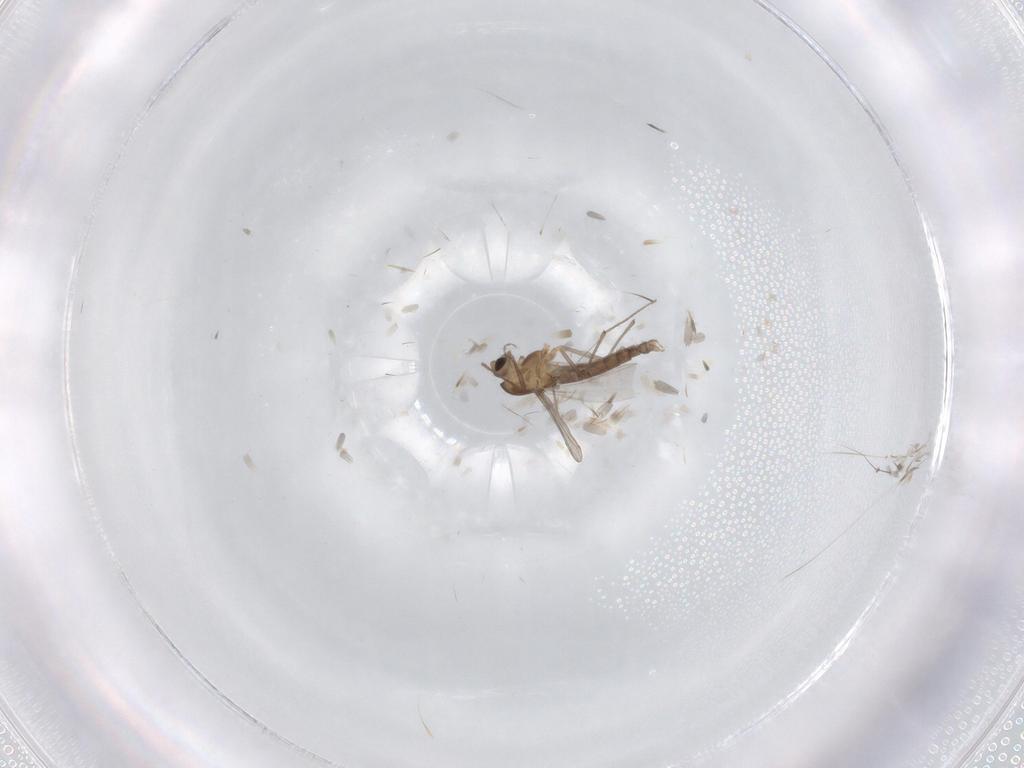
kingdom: Animalia
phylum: Arthropoda
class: Insecta
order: Diptera
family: Chironomidae
